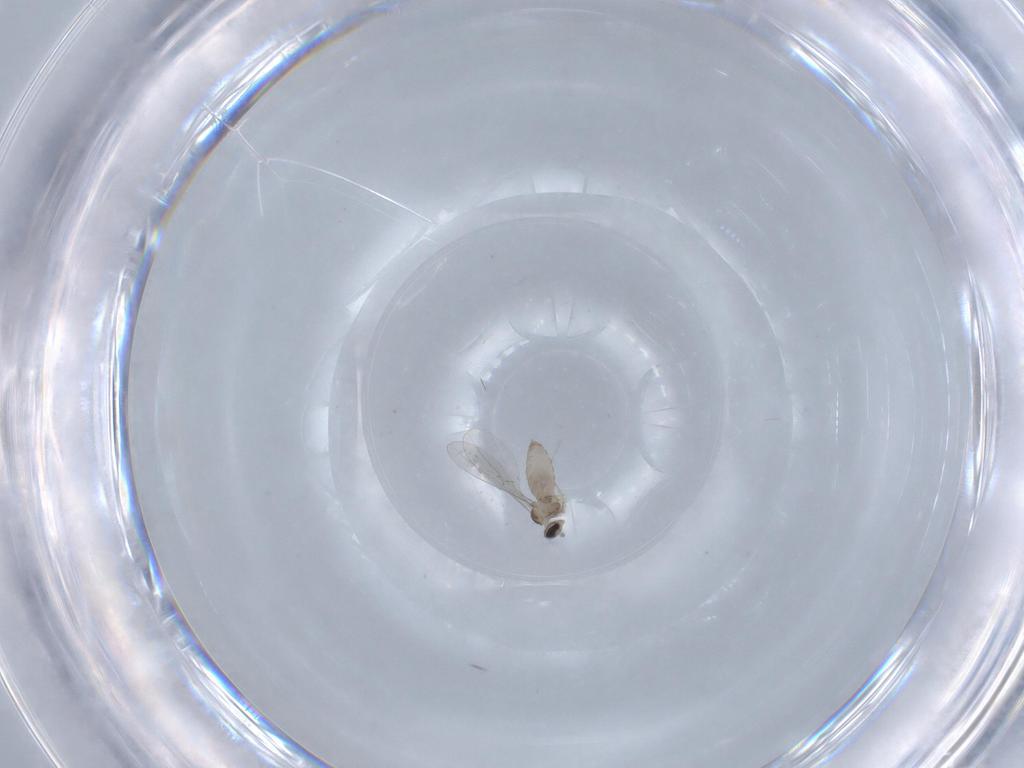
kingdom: Animalia
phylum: Arthropoda
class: Insecta
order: Diptera
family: Cecidomyiidae
